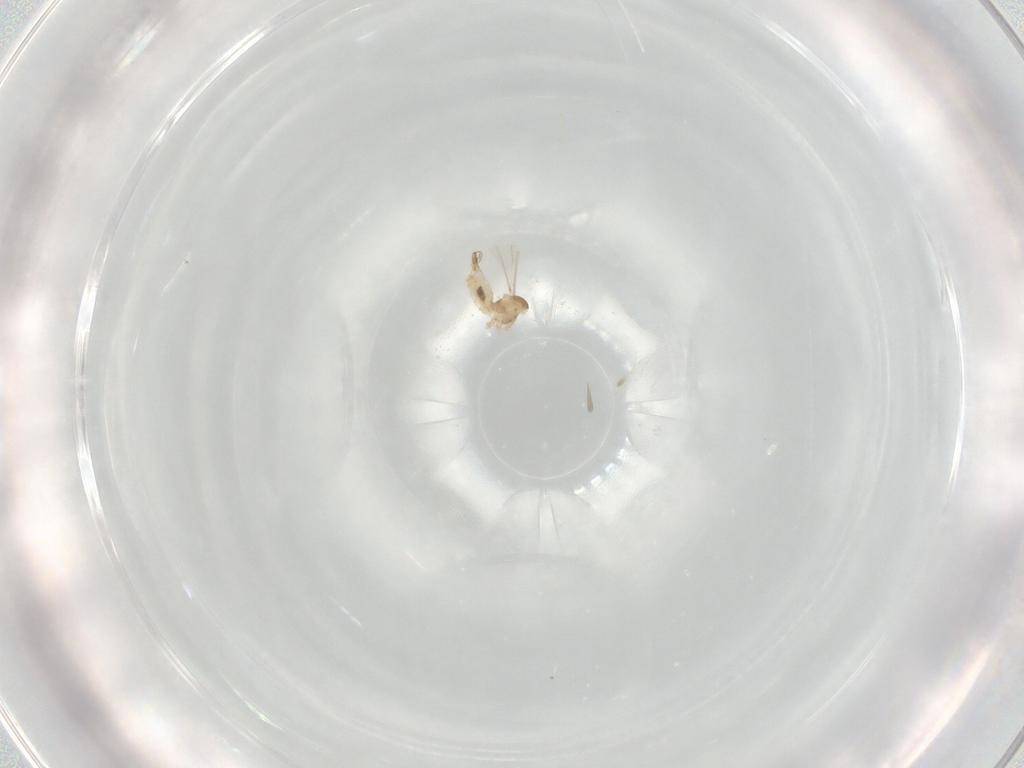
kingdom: Animalia
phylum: Arthropoda
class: Insecta
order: Diptera
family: Cecidomyiidae
